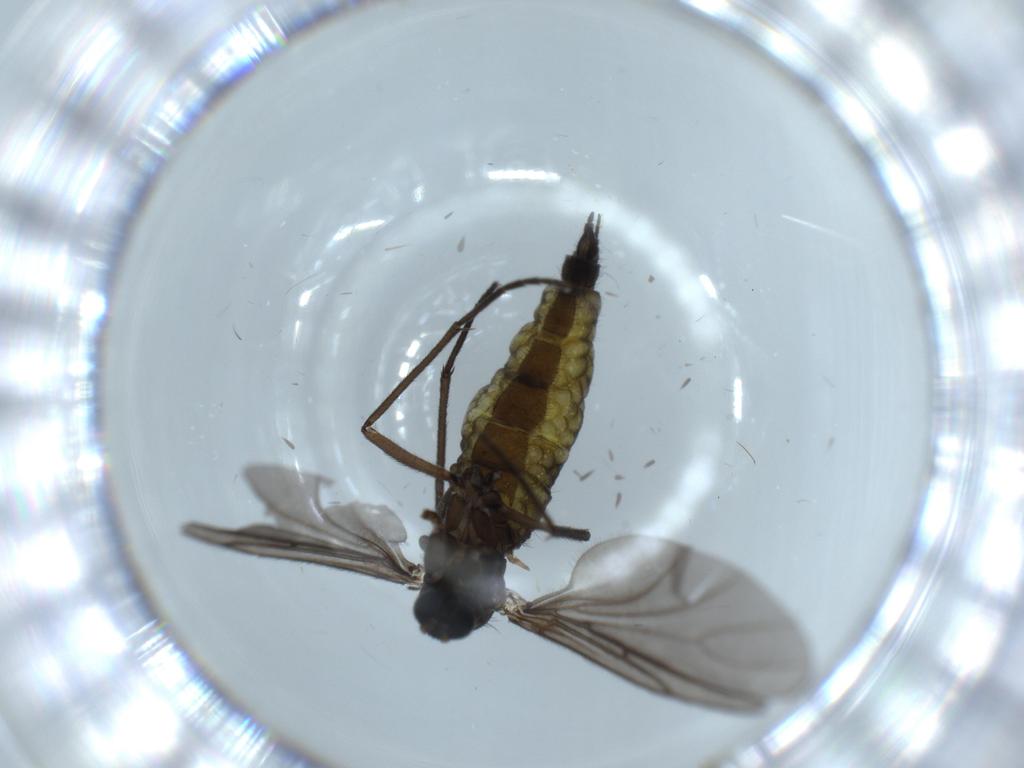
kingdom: Animalia
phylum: Arthropoda
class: Insecta
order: Diptera
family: Sciaridae
